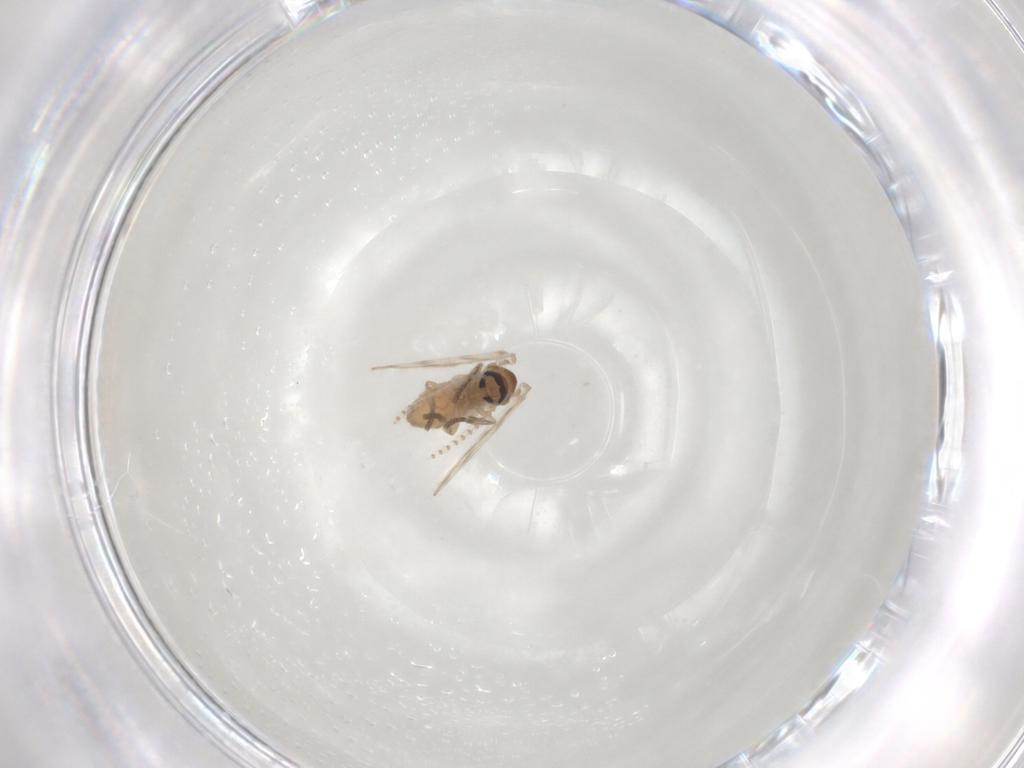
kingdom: Animalia
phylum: Arthropoda
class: Insecta
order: Diptera
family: Psychodidae
